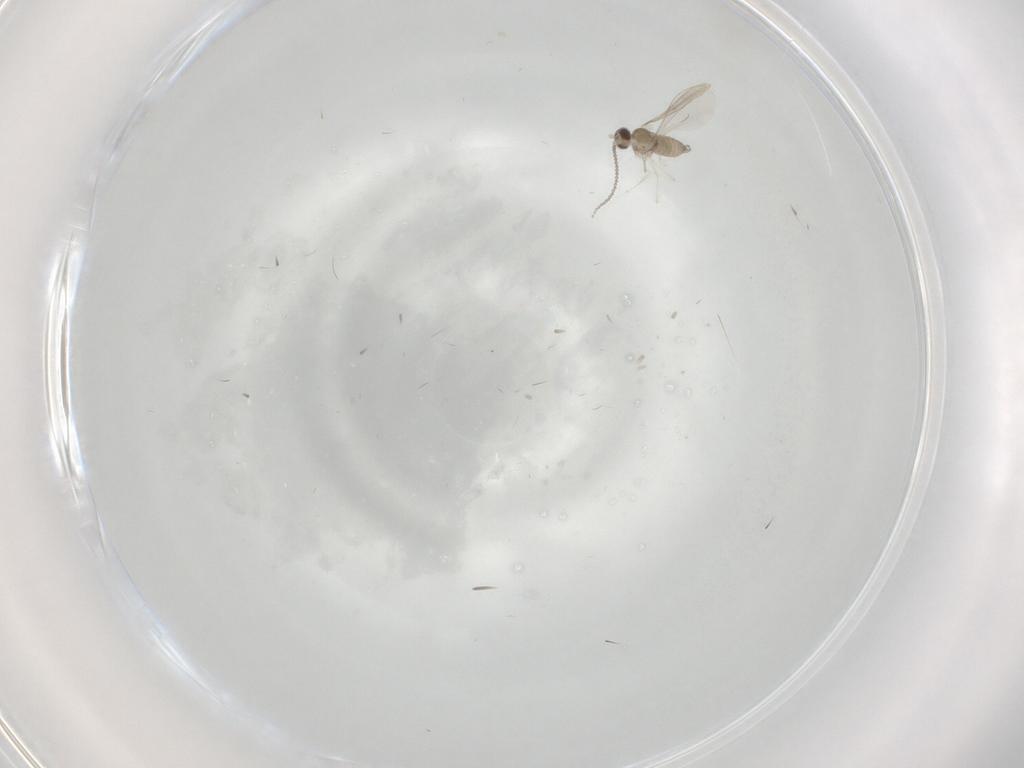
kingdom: Animalia
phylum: Arthropoda
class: Insecta
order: Diptera
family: Cecidomyiidae
